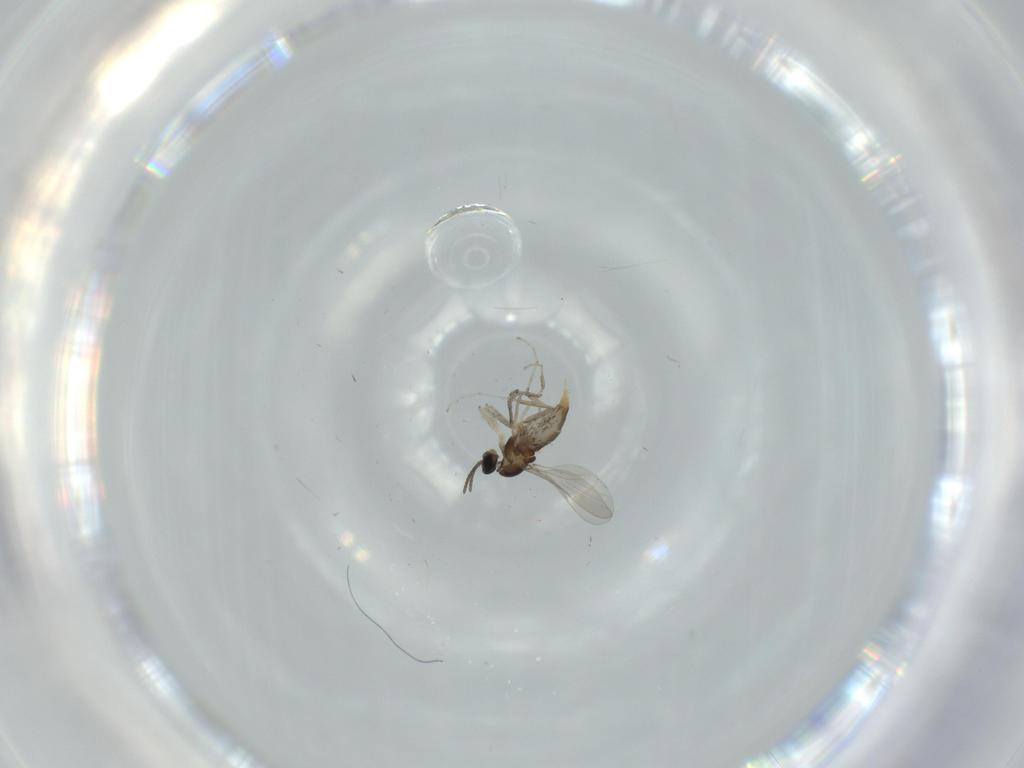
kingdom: Animalia
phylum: Arthropoda
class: Insecta
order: Diptera
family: Cecidomyiidae
